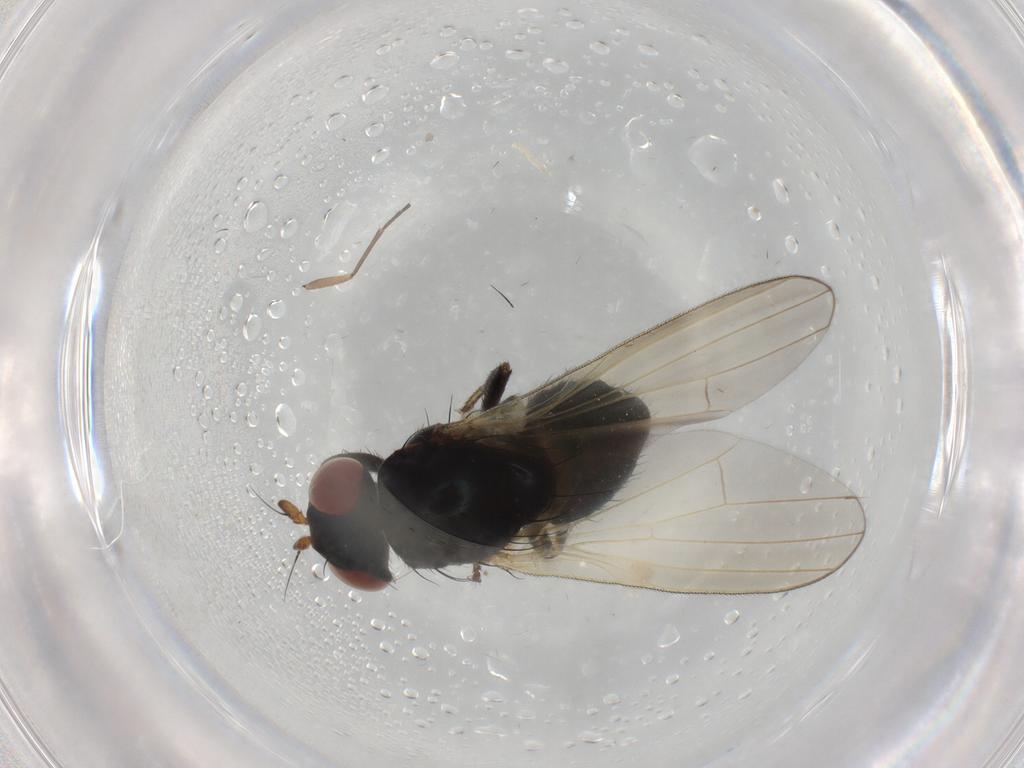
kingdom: Animalia
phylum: Arthropoda
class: Insecta
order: Diptera
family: Lauxaniidae
